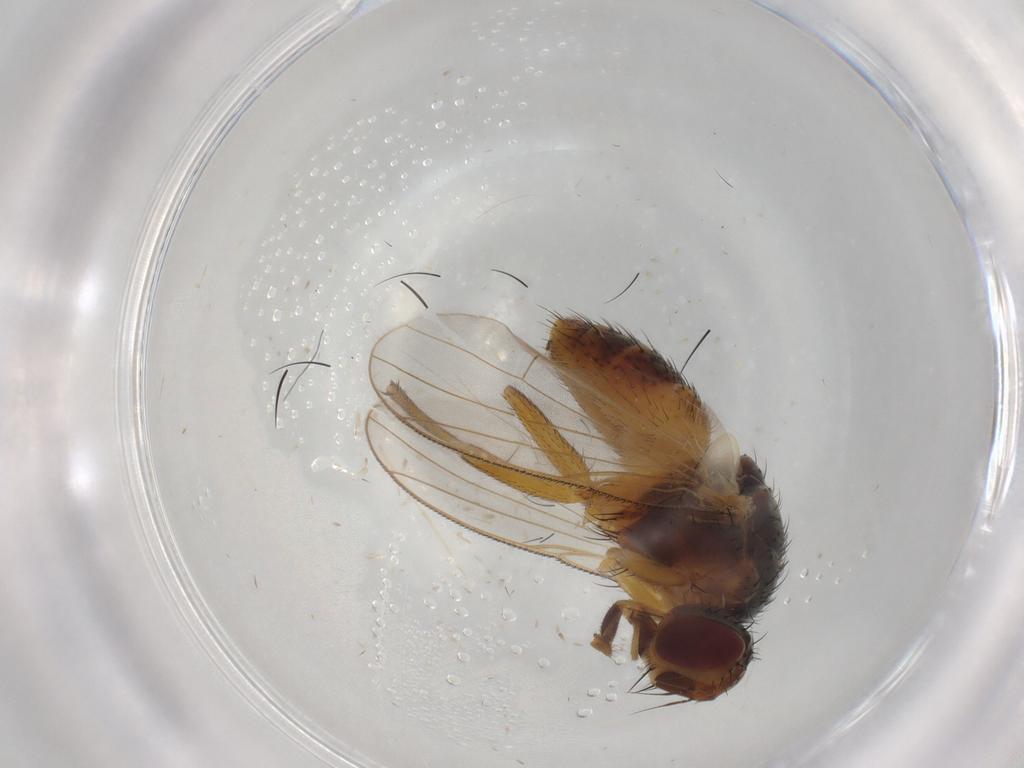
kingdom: Animalia
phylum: Arthropoda
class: Insecta
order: Diptera
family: Muscidae
